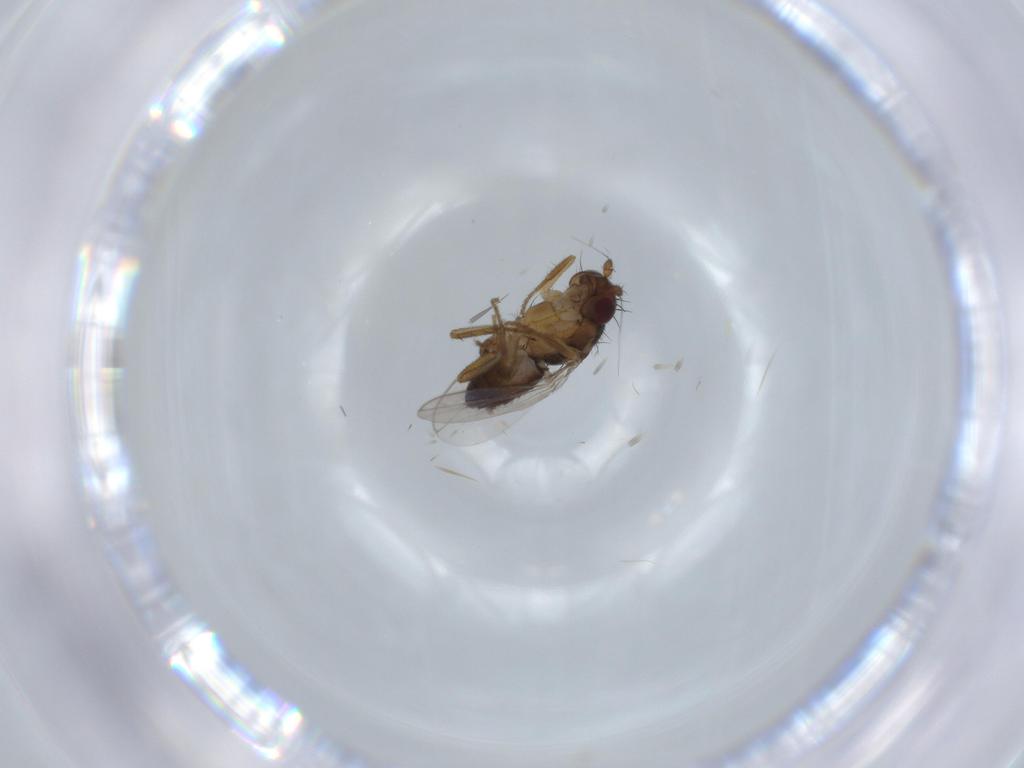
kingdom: Animalia
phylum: Arthropoda
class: Insecta
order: Diptera
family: Sphaeroceridae
